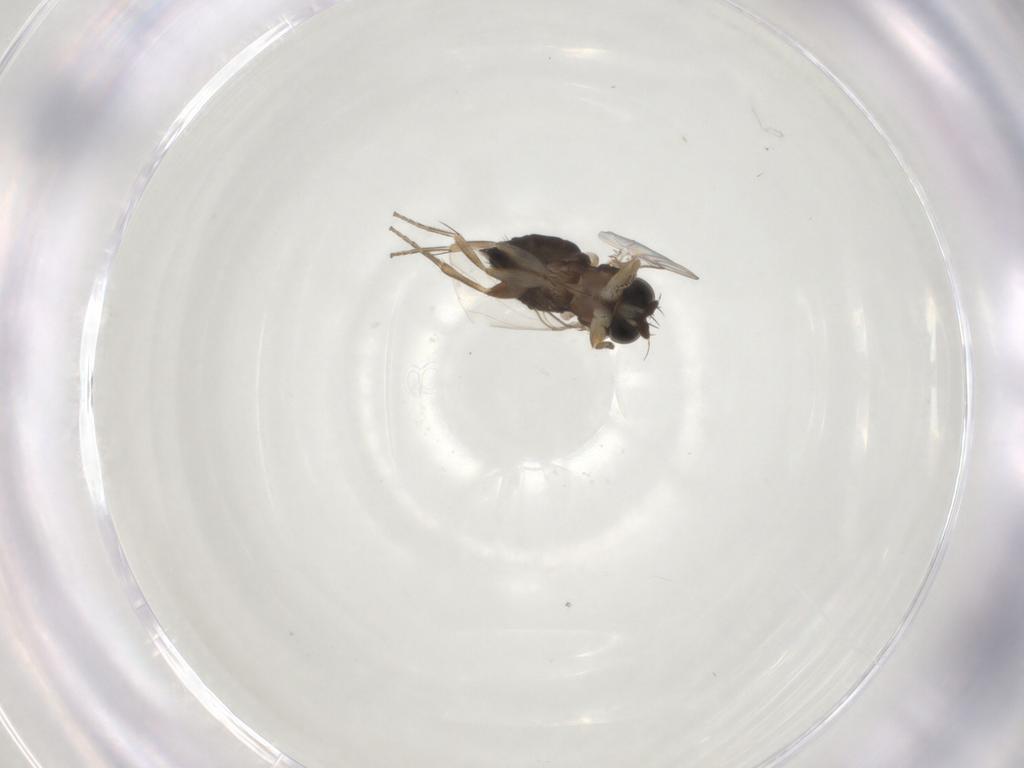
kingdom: Animalia
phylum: Arthropoda
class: Insecta
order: Diptera
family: Phoridae
